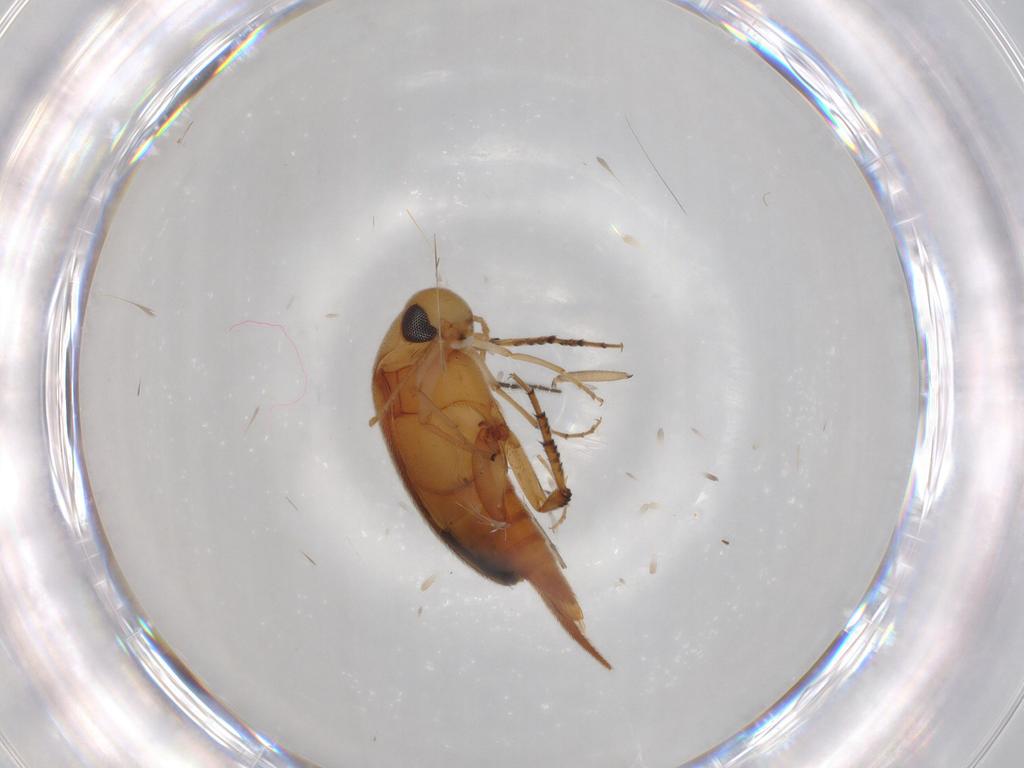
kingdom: Animalia
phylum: Arthropoda
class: Insecta
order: Coleoptera
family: Mordellidae
